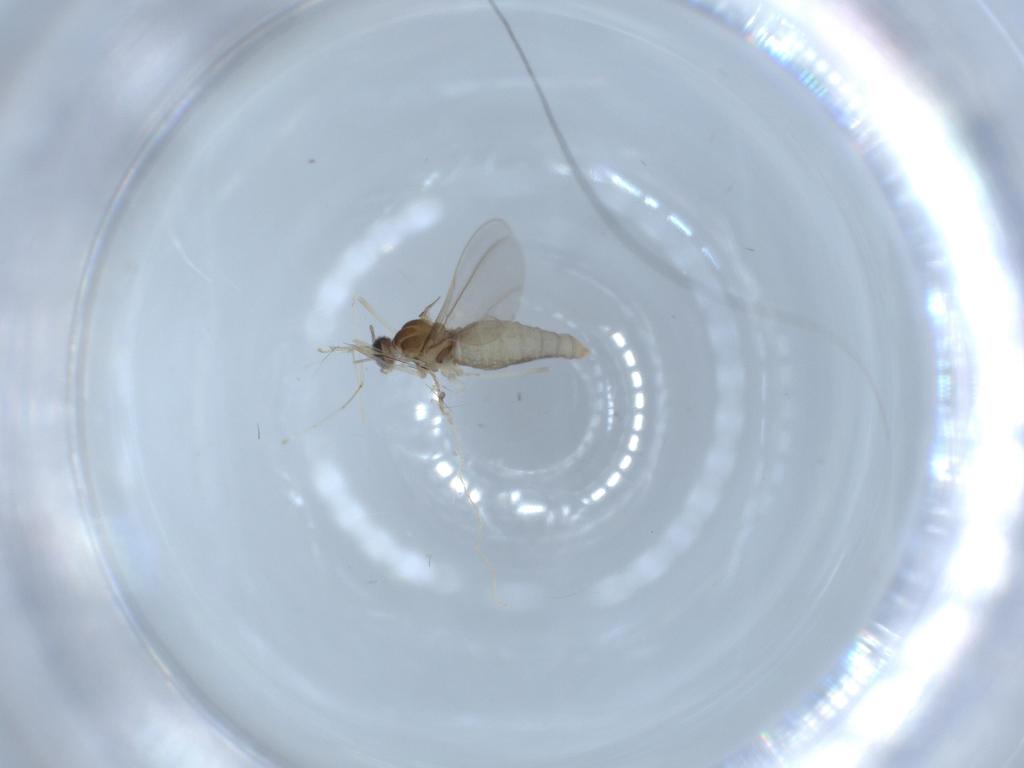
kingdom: Animalia
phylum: Arthropoda
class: Insecta
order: Diptera
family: Cecidomyiidae
